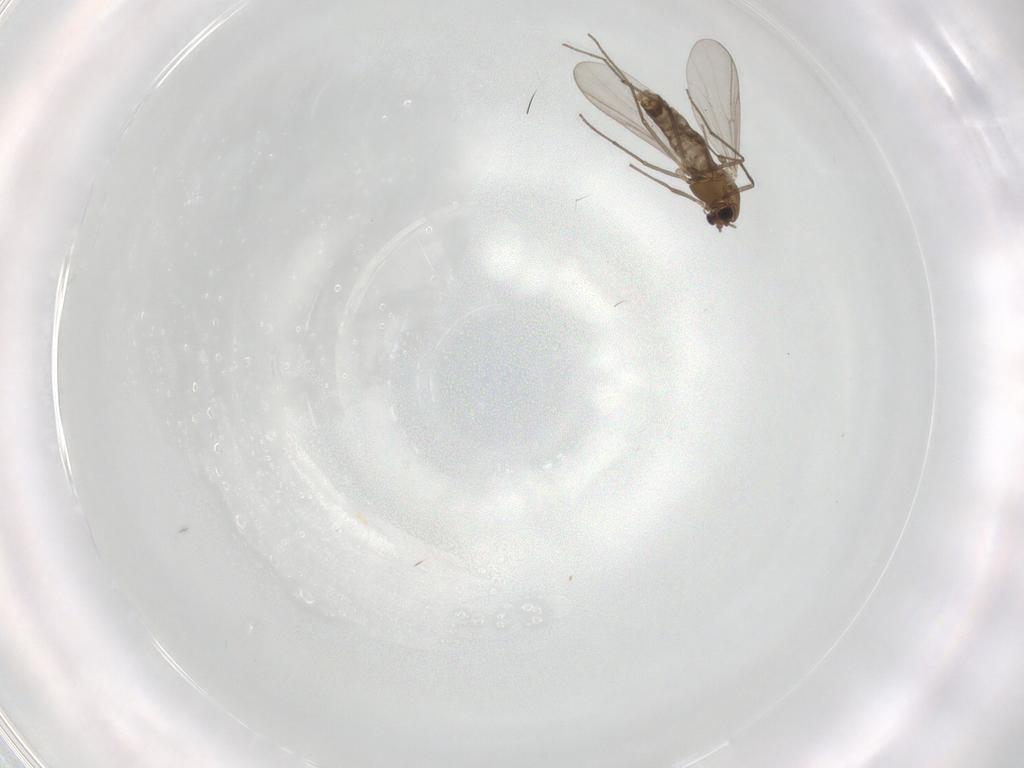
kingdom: Animalia
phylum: Arthropoda
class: Insecta
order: Diptera
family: Chironomidae
